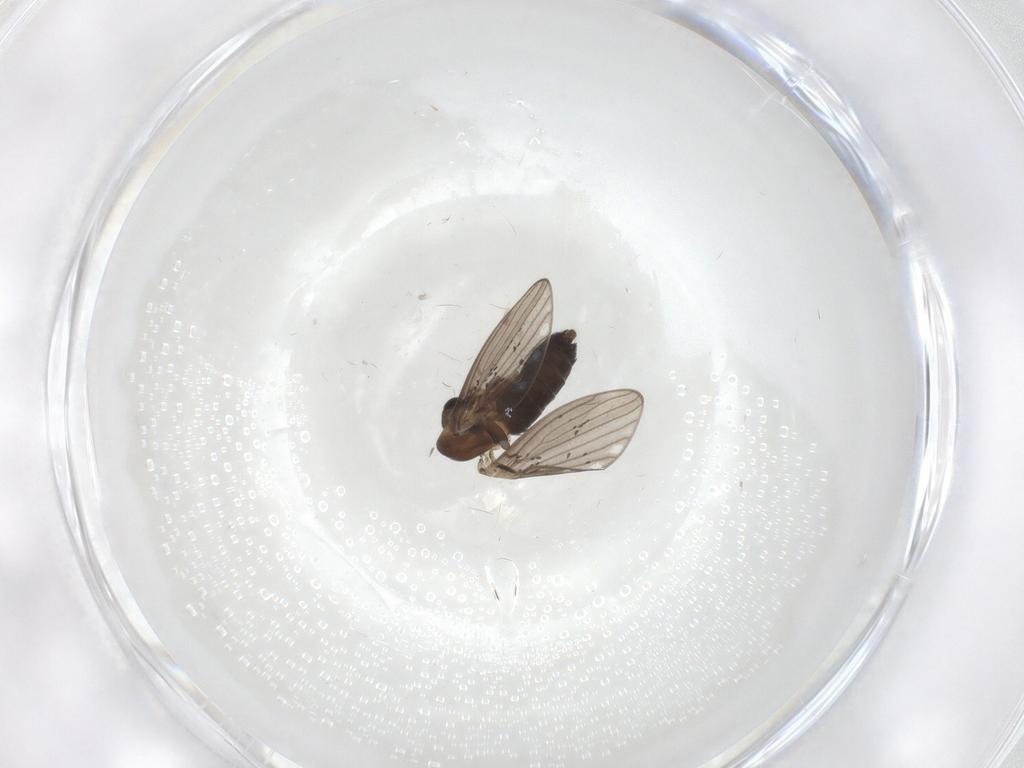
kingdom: Animalia
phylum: Arthropoda
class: Insecta
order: Diptera
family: Psychodidae
